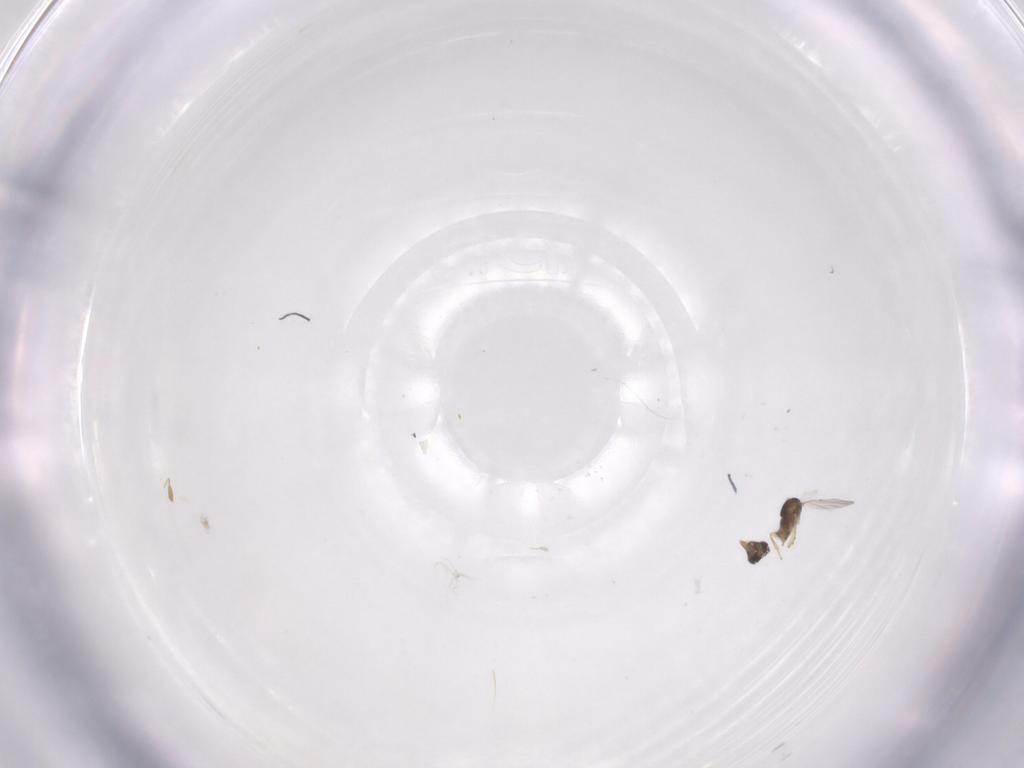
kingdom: Animalia
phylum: Arthropoda
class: Insecta
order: Hymenoptera
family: Encyrtidae
